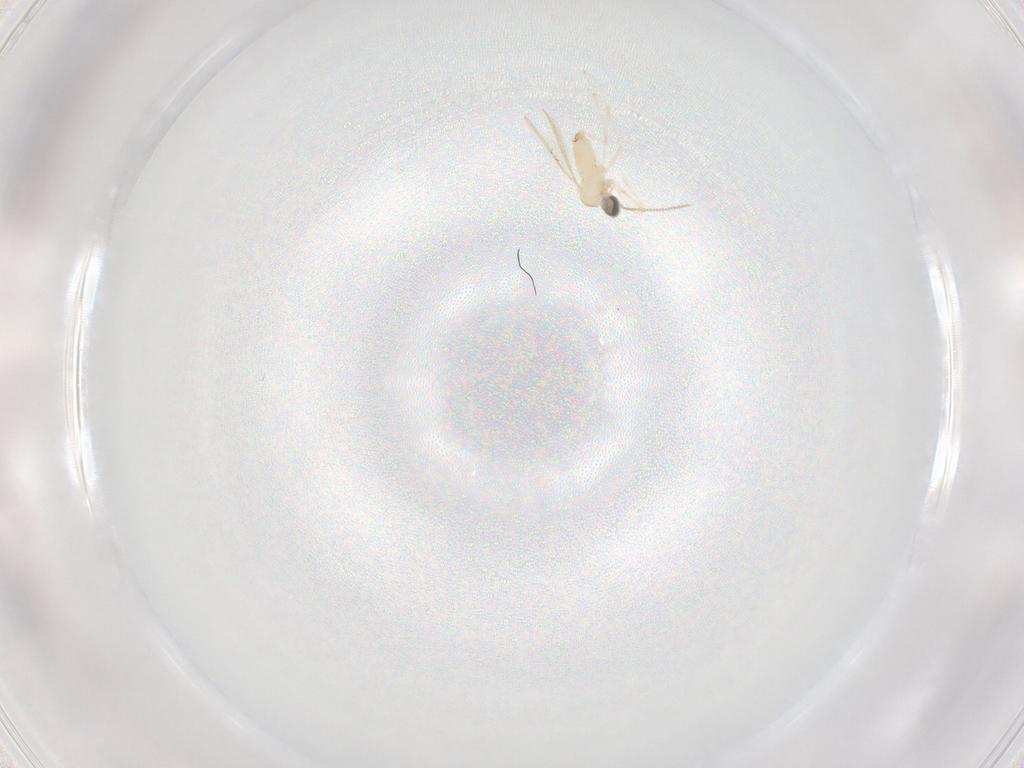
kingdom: Animalia
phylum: Arthropoda
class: Insecta
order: Diptera
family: Cecidomyiidae
